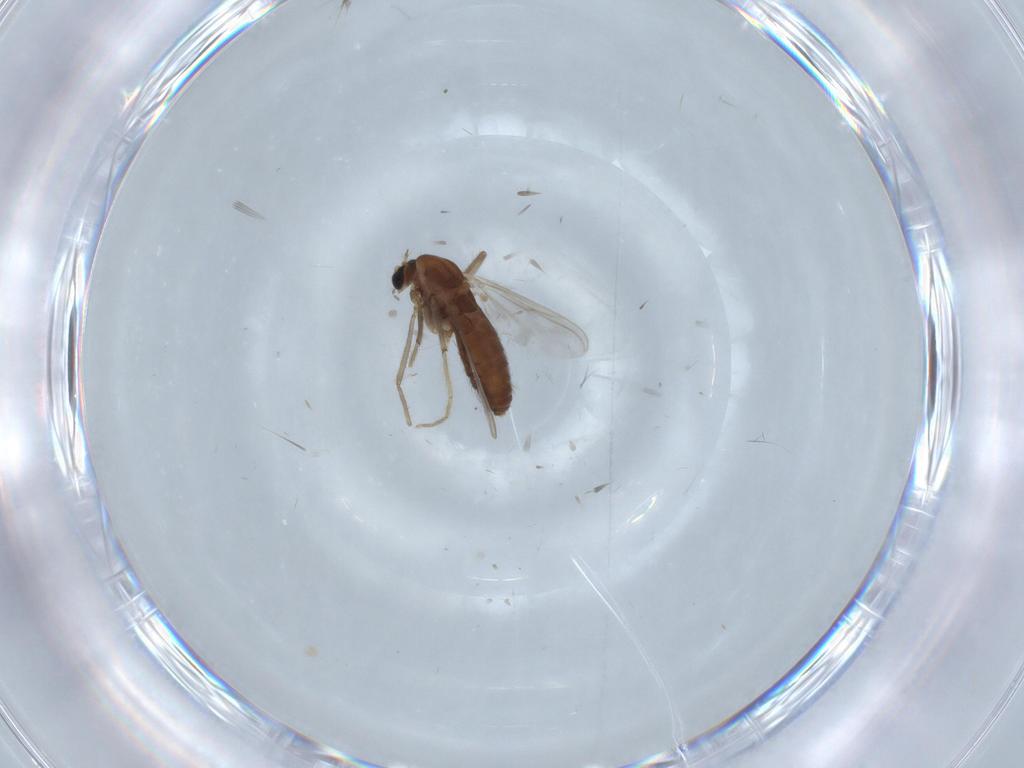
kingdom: Animalia
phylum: Arthropoda
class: Insecta
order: Diptera
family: Chironomidae
